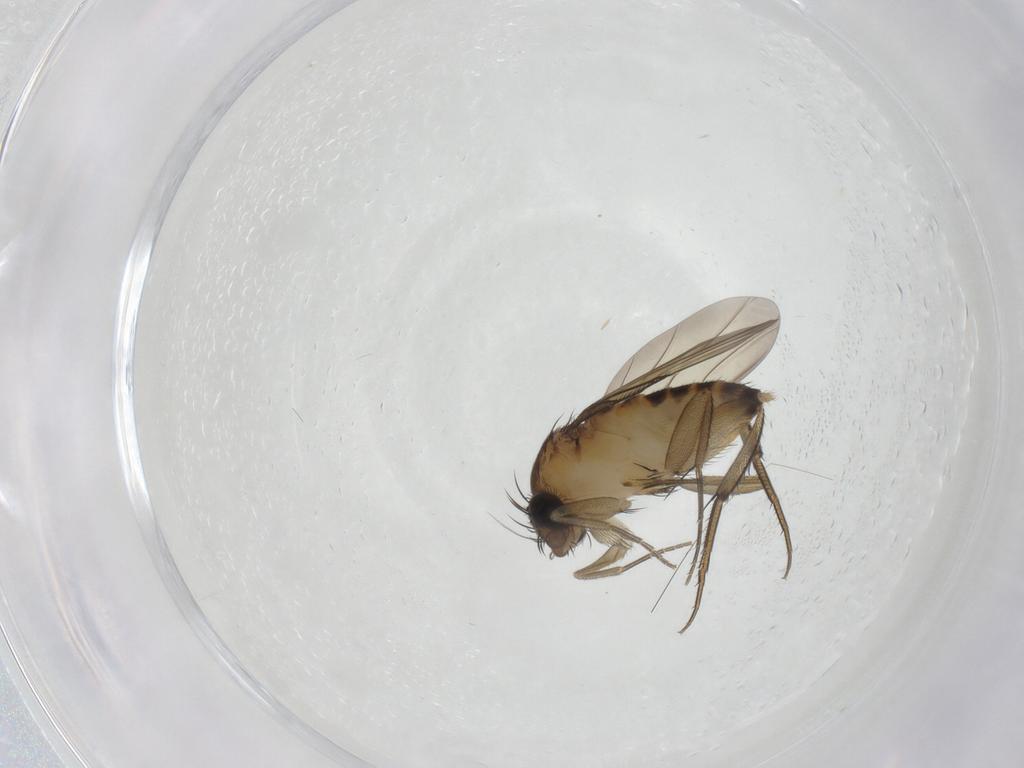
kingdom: Animalia
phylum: Arthropoda
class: Insecta
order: Diptera
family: Phoridae
